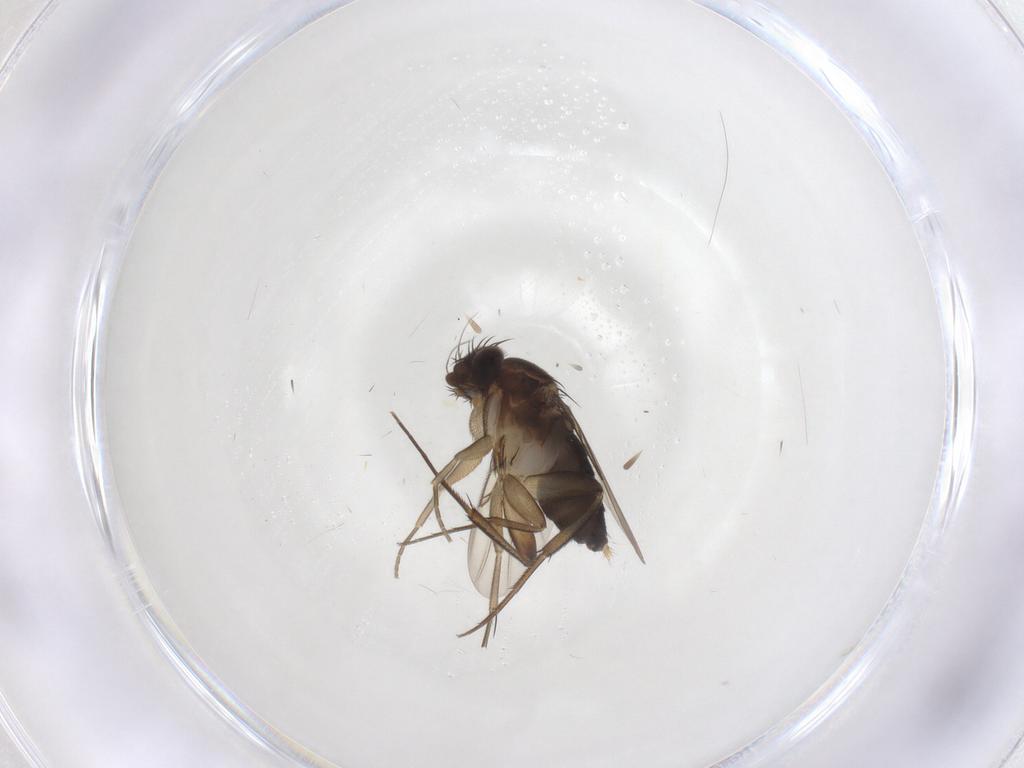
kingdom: Animalia
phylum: Arthropoda
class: Insecta
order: Diptera
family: Phoridae
